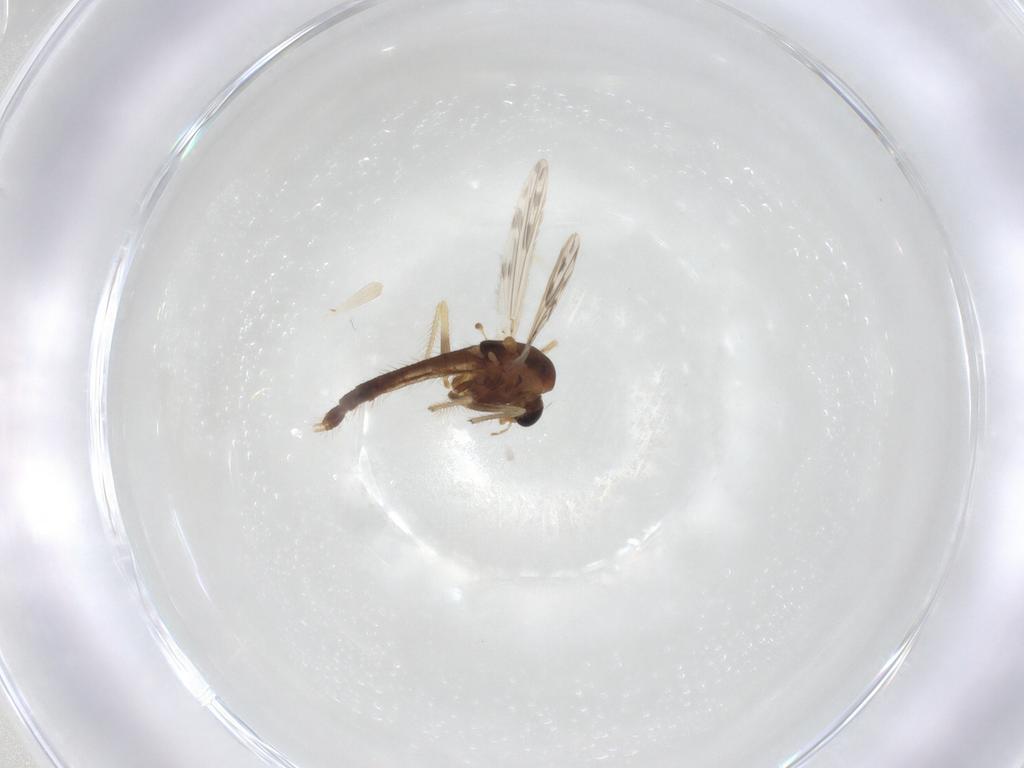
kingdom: Animalia
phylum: Arthropoda
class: Insecta
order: Diptera
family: Chironomidae
